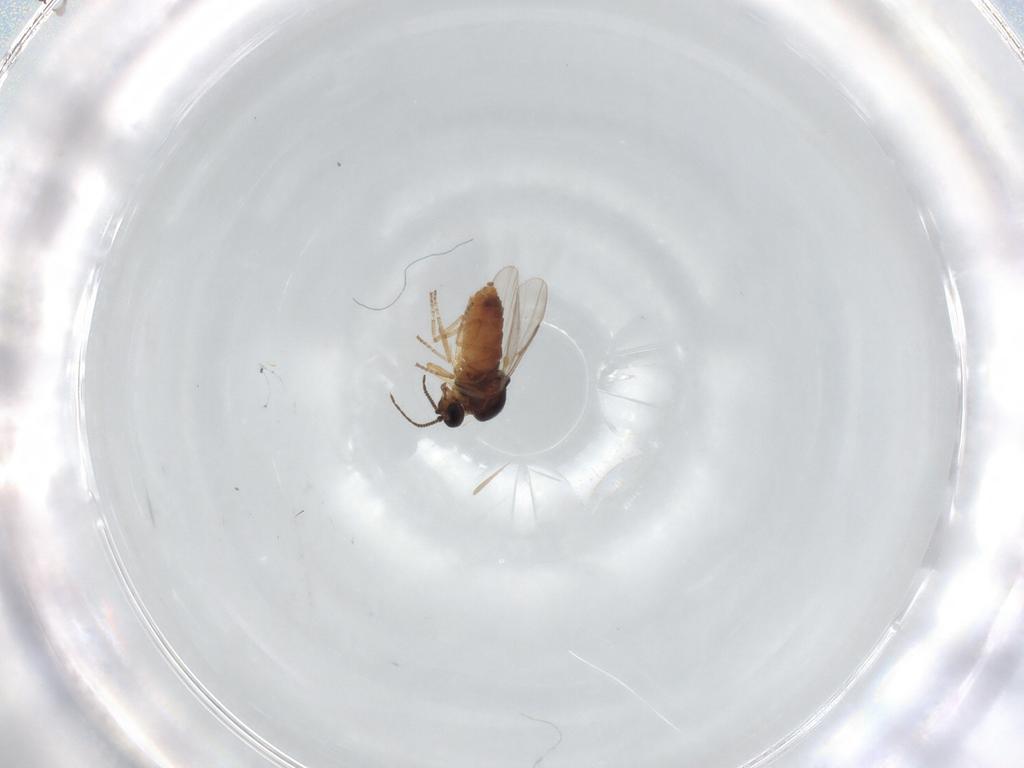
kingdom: Animalia
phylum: Arthropoda
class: Insecta
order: Diptera
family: Ceratopogonidae
